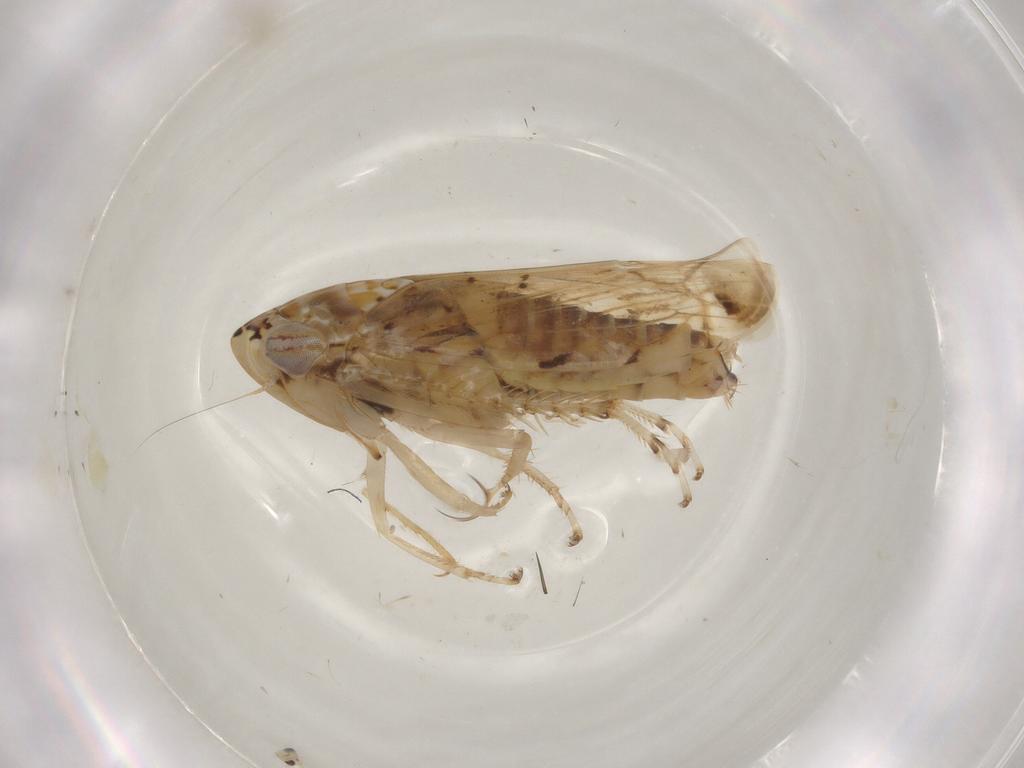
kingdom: Animalia
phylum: Arthropoda
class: Insecta
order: Hemiptera
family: Cicadellidae
